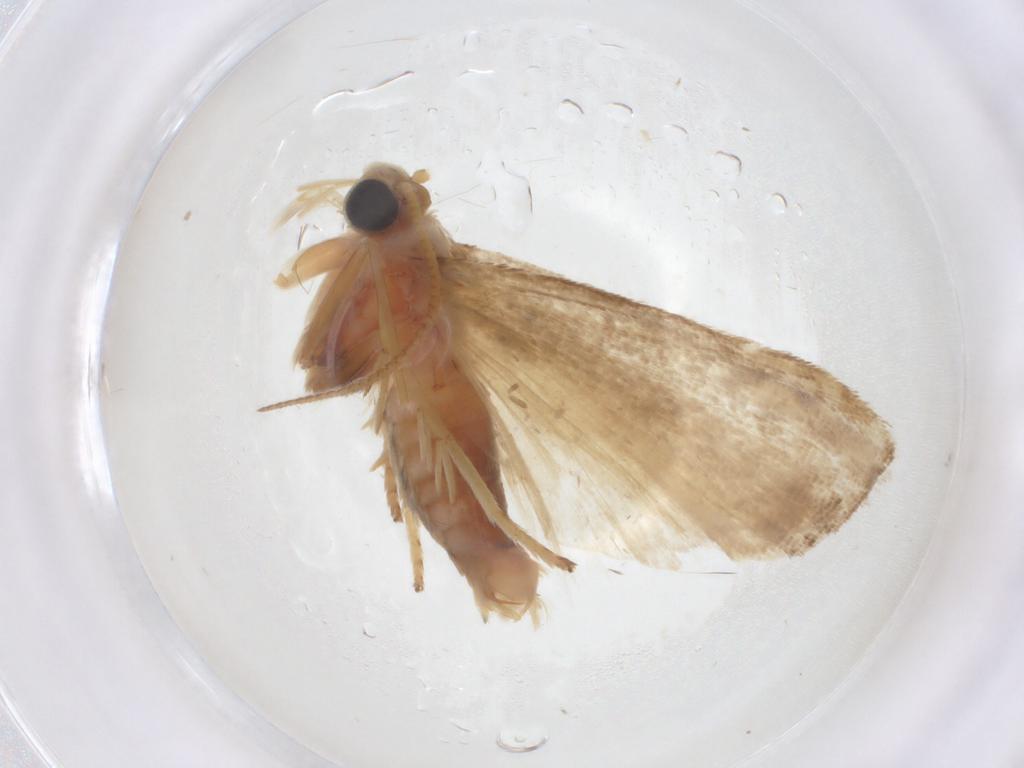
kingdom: Animalia
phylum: Arthropoda
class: Insecta
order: Lepidoptera
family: Pyralidae
